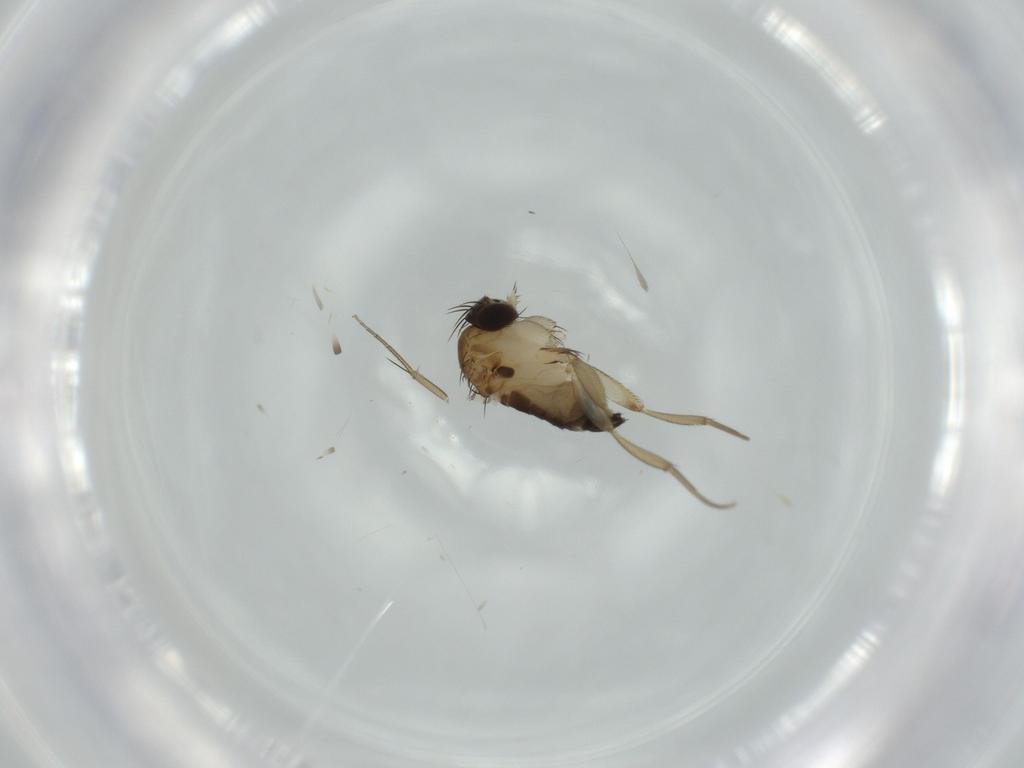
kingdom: Animalia
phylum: Arthropoda
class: Insecta
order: Diptera
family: Phoridae
